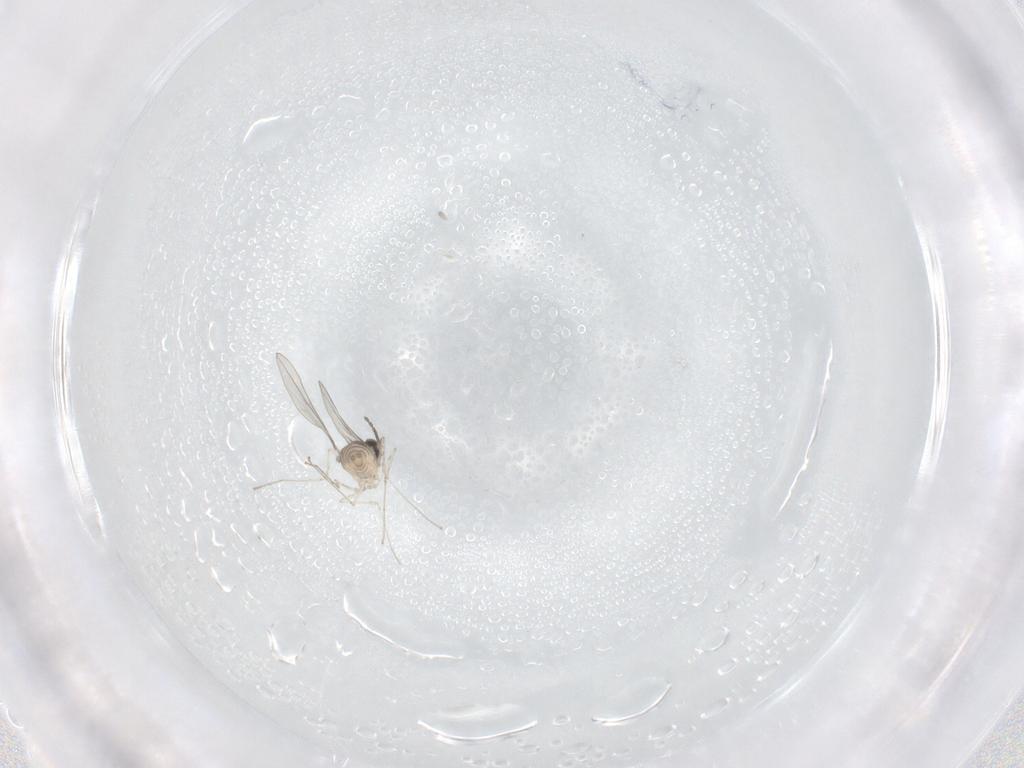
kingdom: Animalia
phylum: Arthropoda
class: Insecta
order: Diptera
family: Cecidomyiidae
